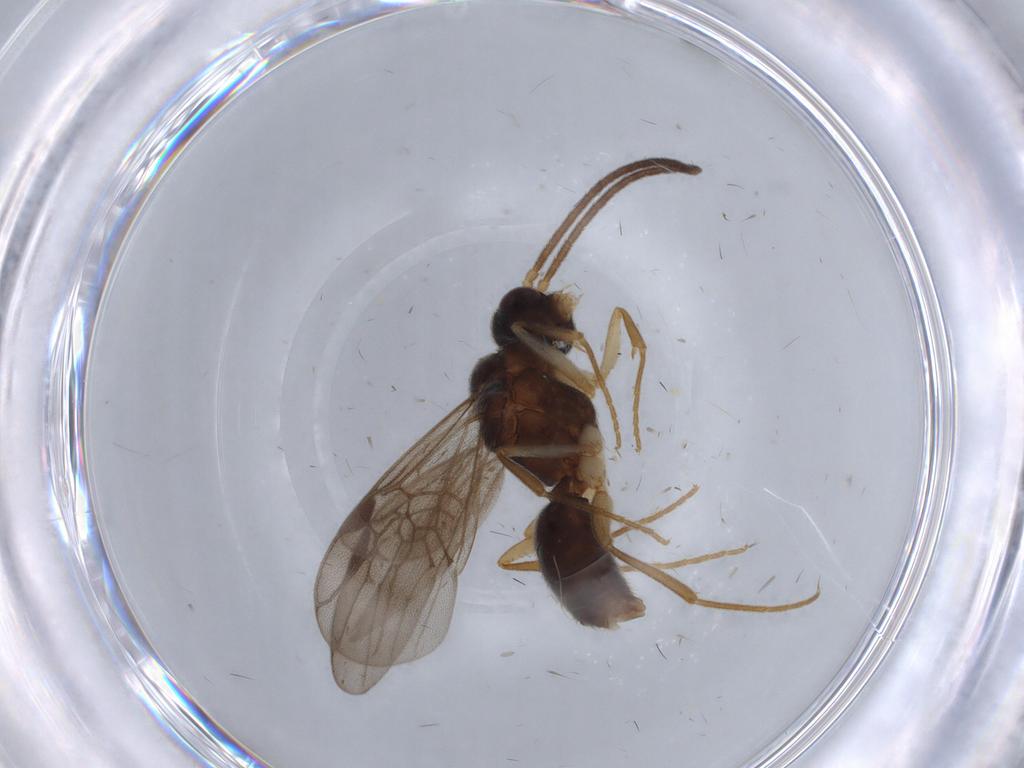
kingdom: Animalia
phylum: Arthropoda
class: Insecta
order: Hymenoptera
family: Formicidae
